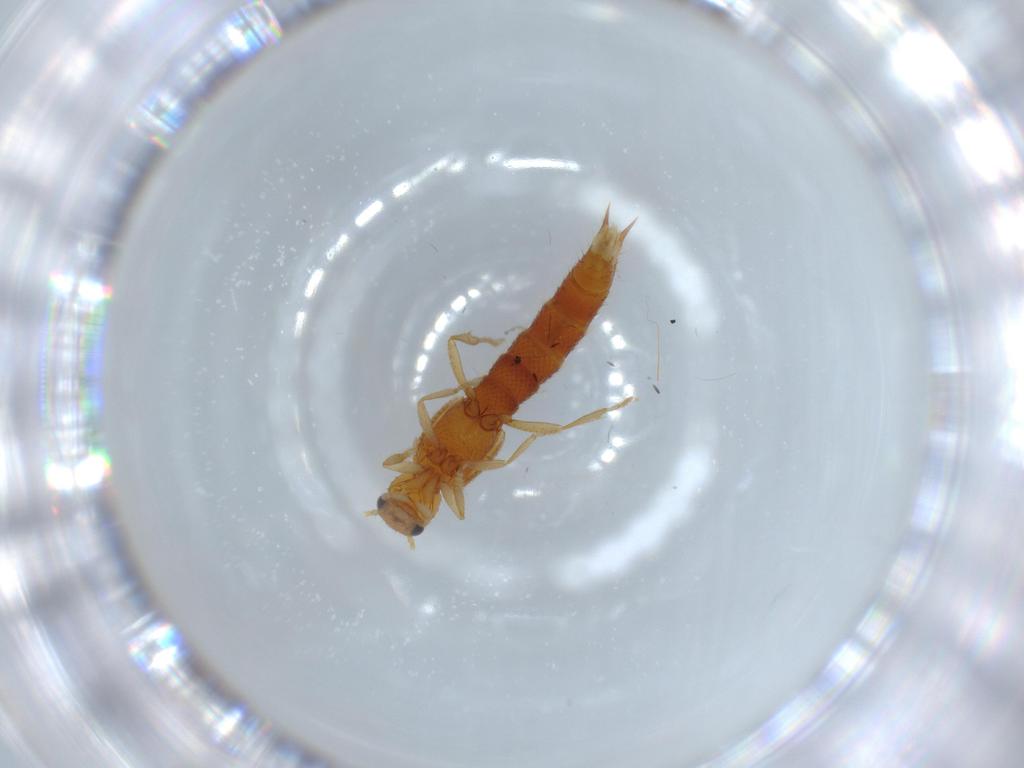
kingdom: Animalia
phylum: Arthropoda
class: Insecta
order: Coleoptera
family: Staphylinidae
